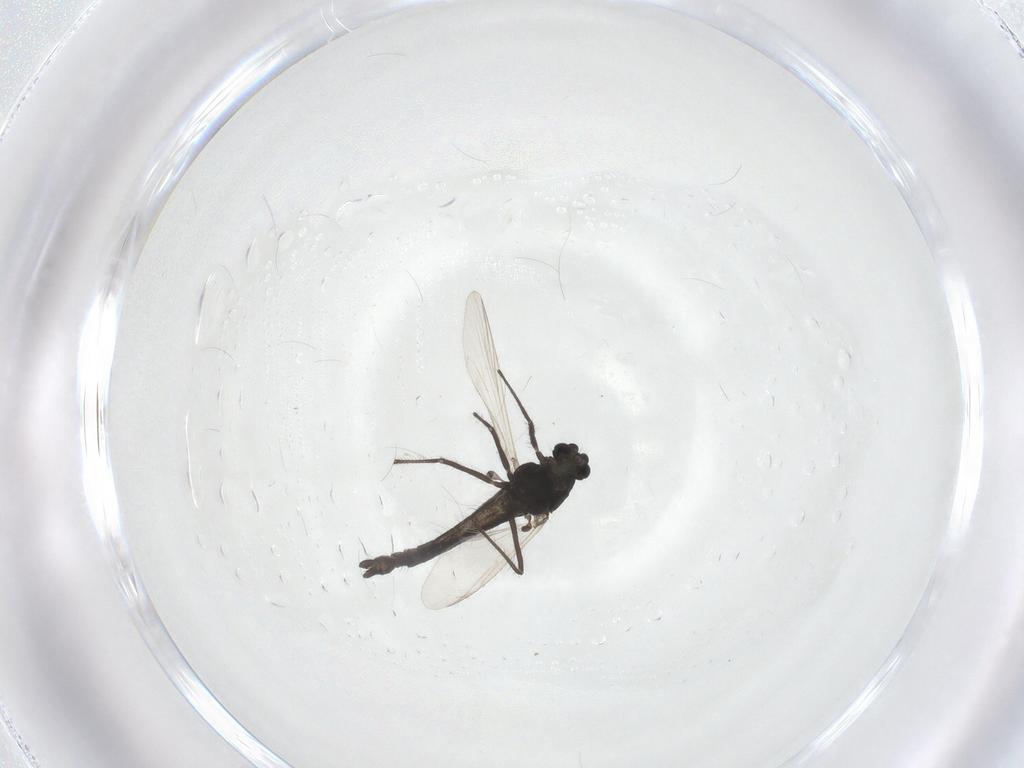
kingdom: Animalia
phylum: Arthropoda
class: Insecta
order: Diptera
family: Chironomidae
